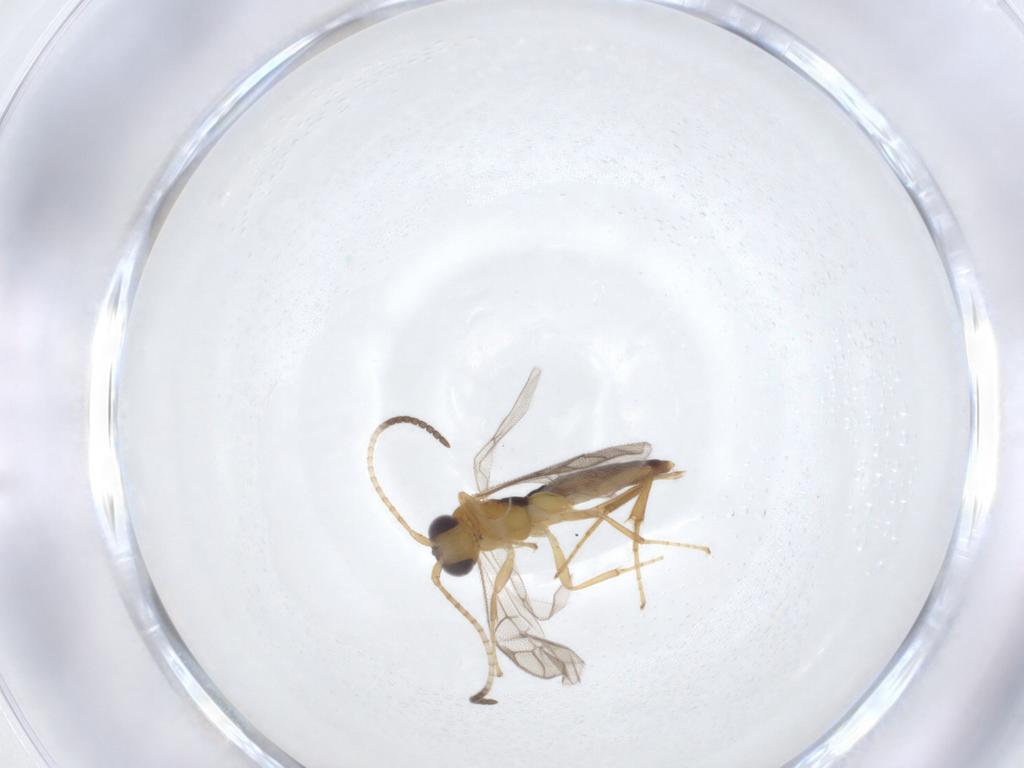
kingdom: Animalia
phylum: Arthropoda
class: Insecta
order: Hymenoptera
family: Ichneumonidae
